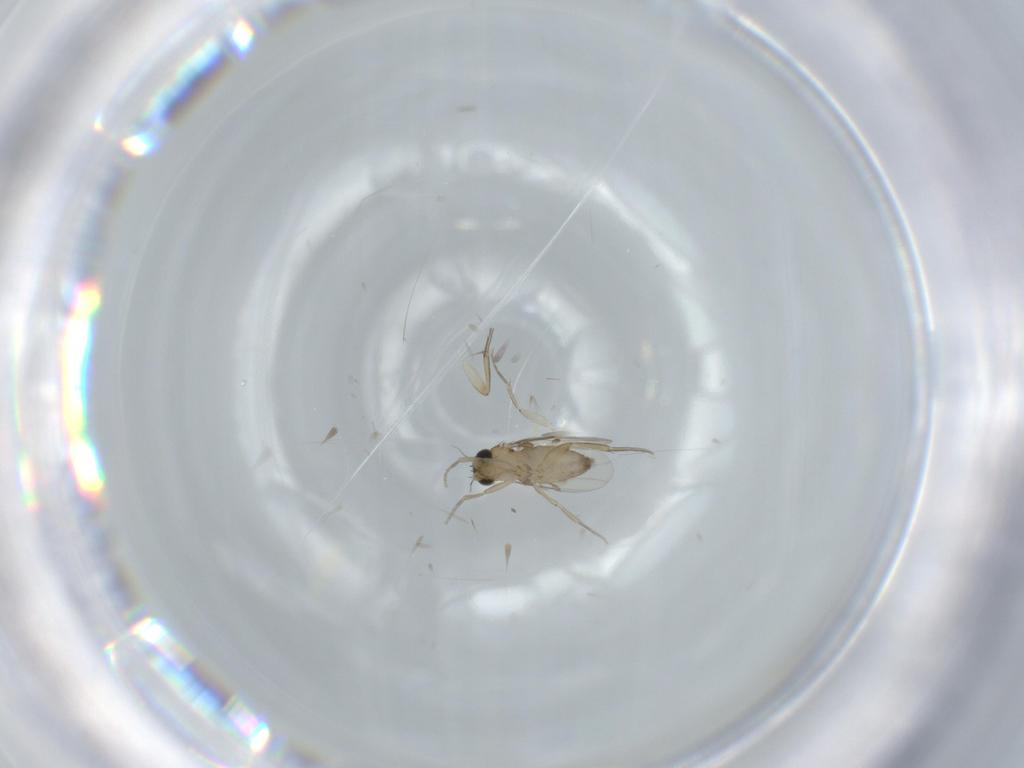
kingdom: Animalia
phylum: Arthropoda
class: Insecta
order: Diptera
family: Phoridae
